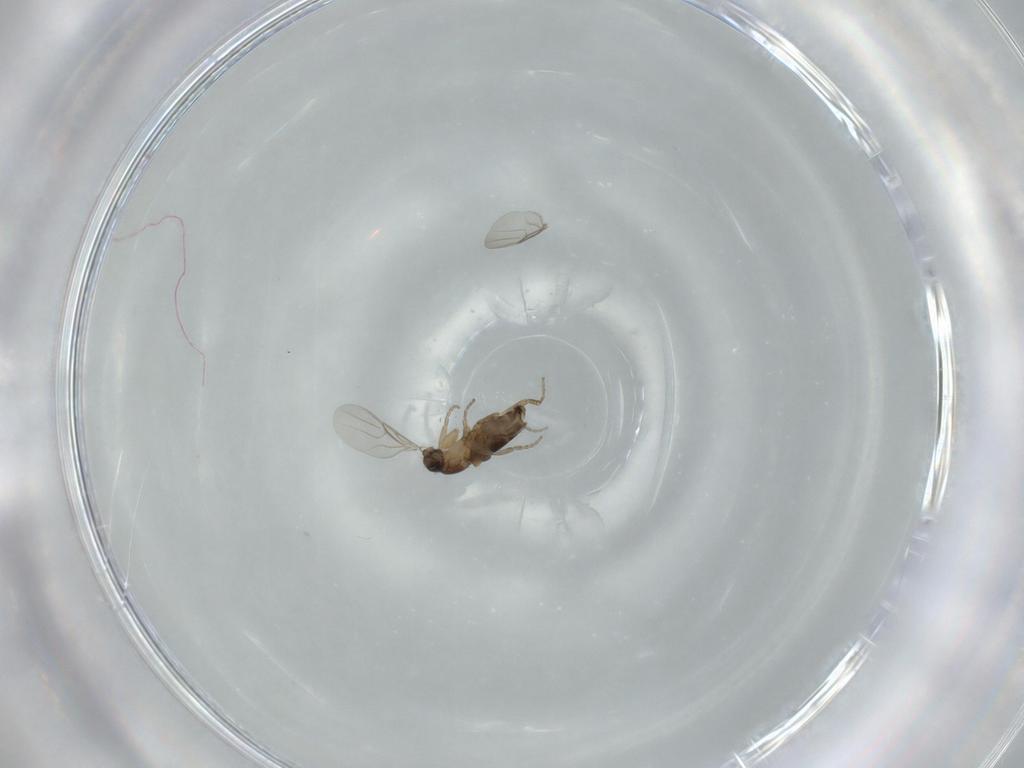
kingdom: Animalia
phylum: Arthropoda
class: Insecta
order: Diptera
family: Phoridae
